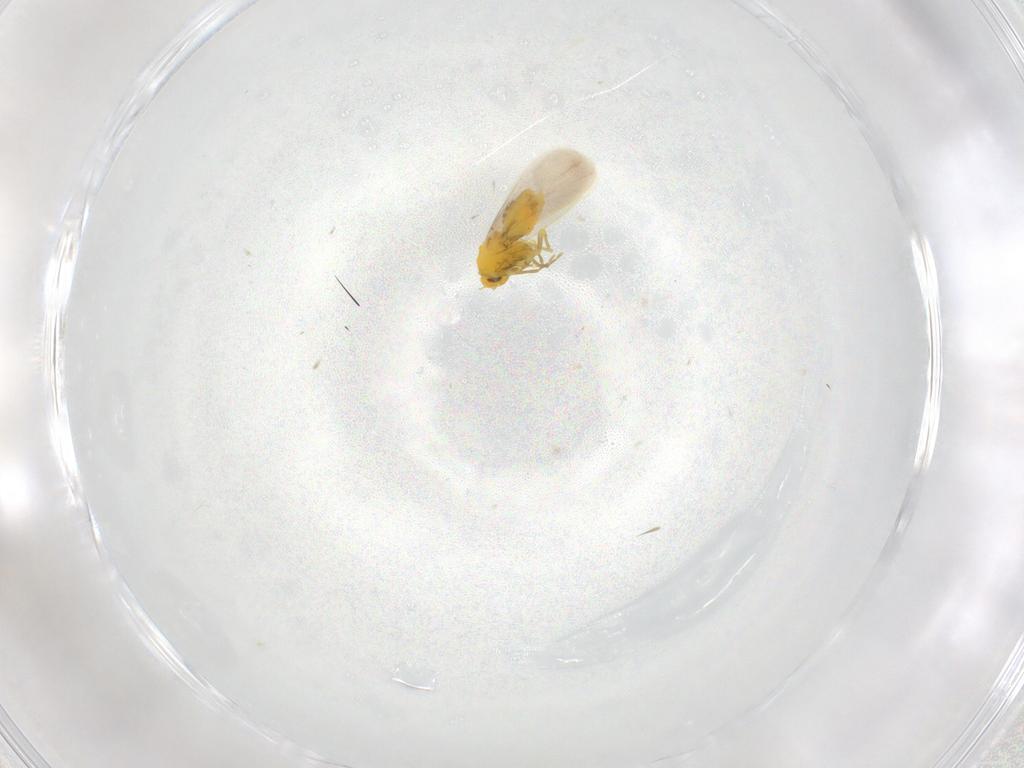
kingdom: Animalia
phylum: Arthropoda
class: Insecta
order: Hemiptera
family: Aleyrodidae
